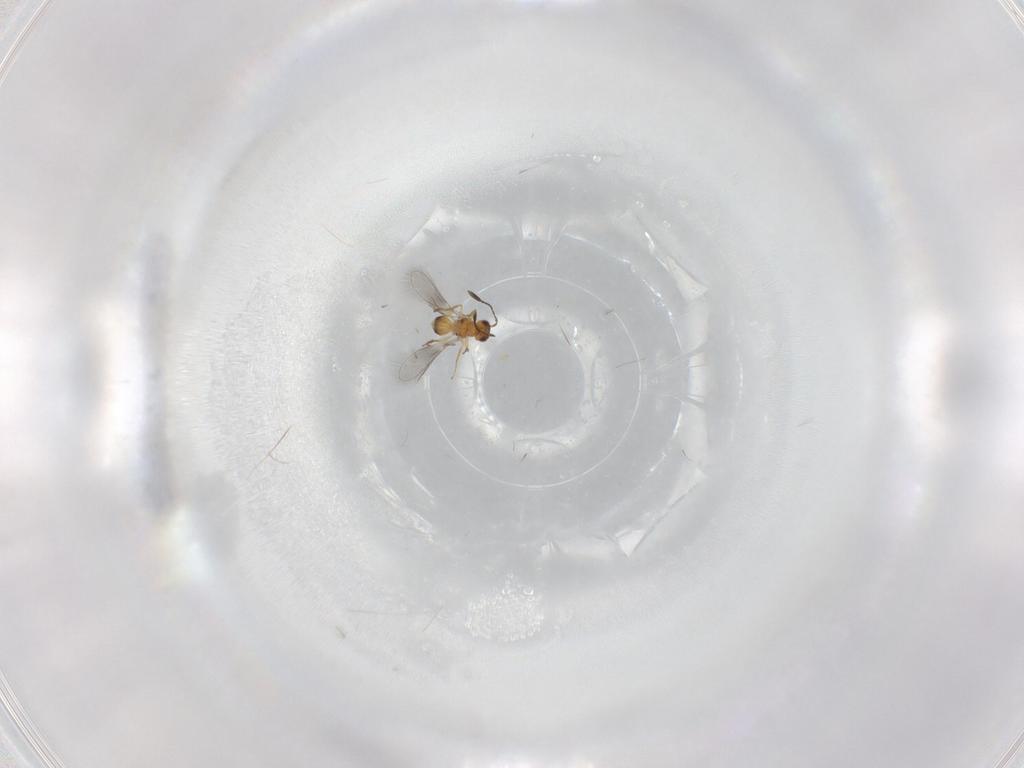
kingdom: Animalia
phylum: Arthropoda
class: Insecta
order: Hymenoptera
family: Mymaridae
